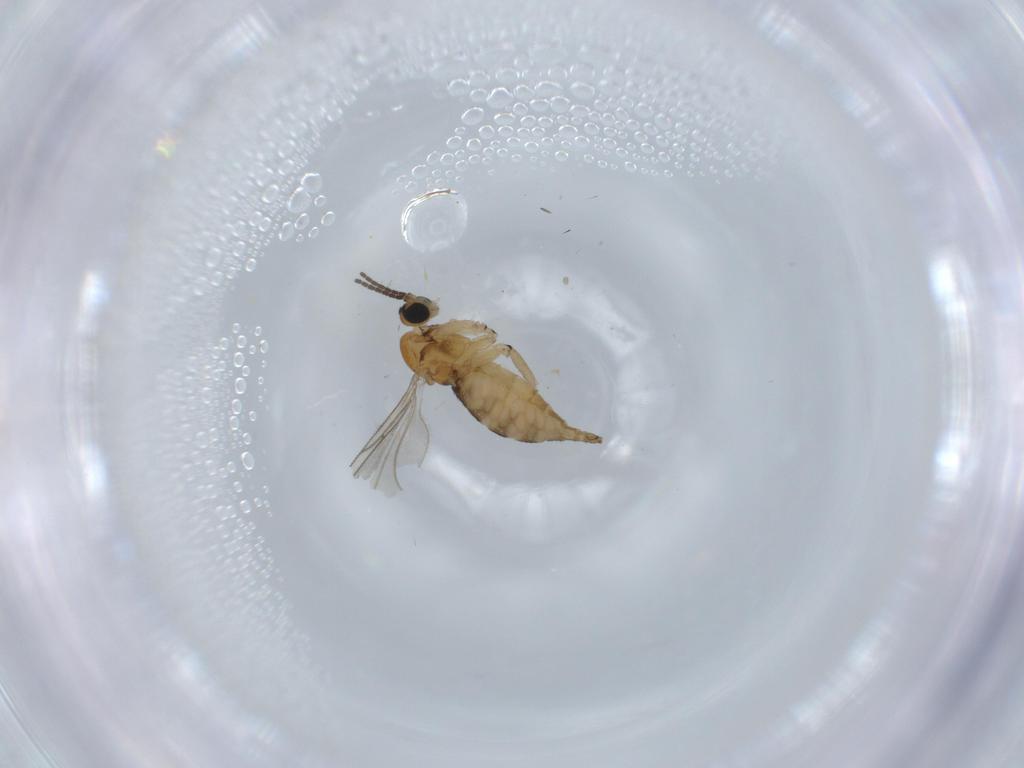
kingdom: Animalia
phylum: Arthropoda
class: Insecta
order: Diptera
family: Sciaridae
